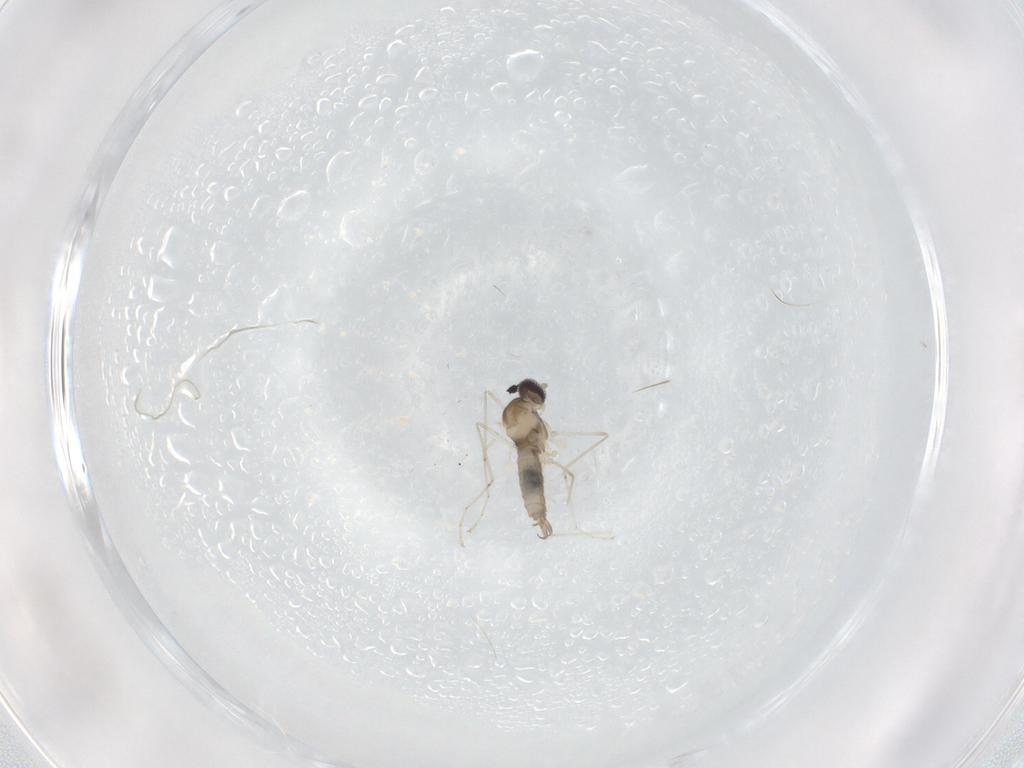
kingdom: Animalia
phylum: Arthropoda
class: Insecta
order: Diptera
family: Cecidomyiidae
